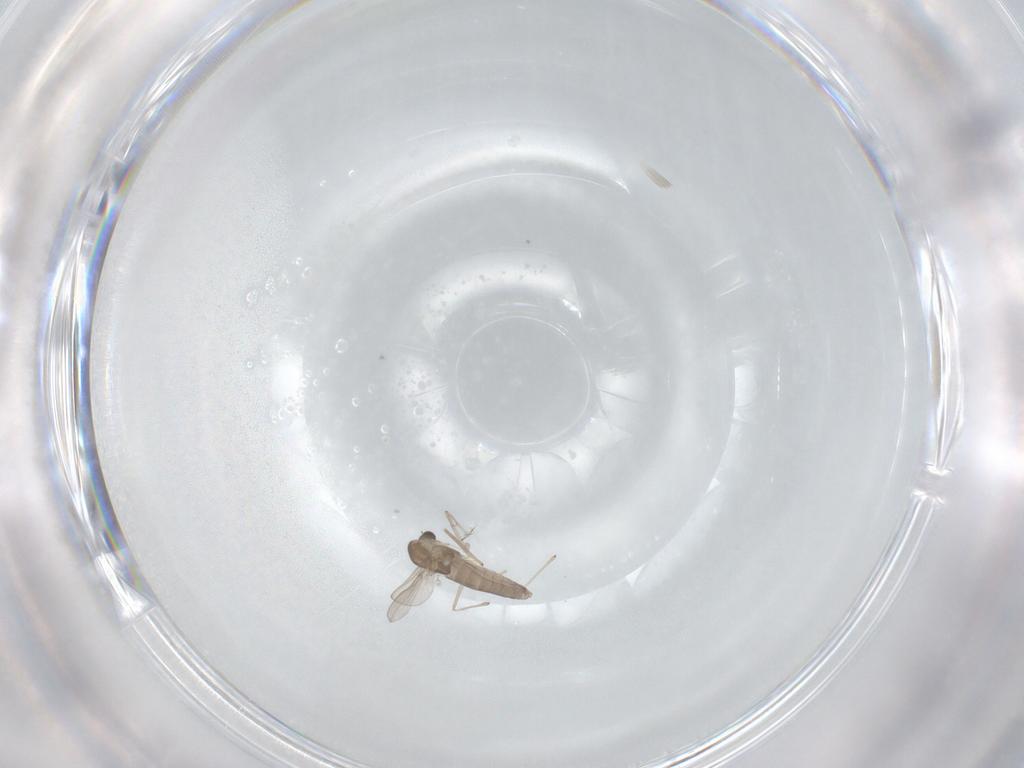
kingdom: Animalia
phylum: Arthropoda
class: Insecta
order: Diptera
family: Chironomidae
